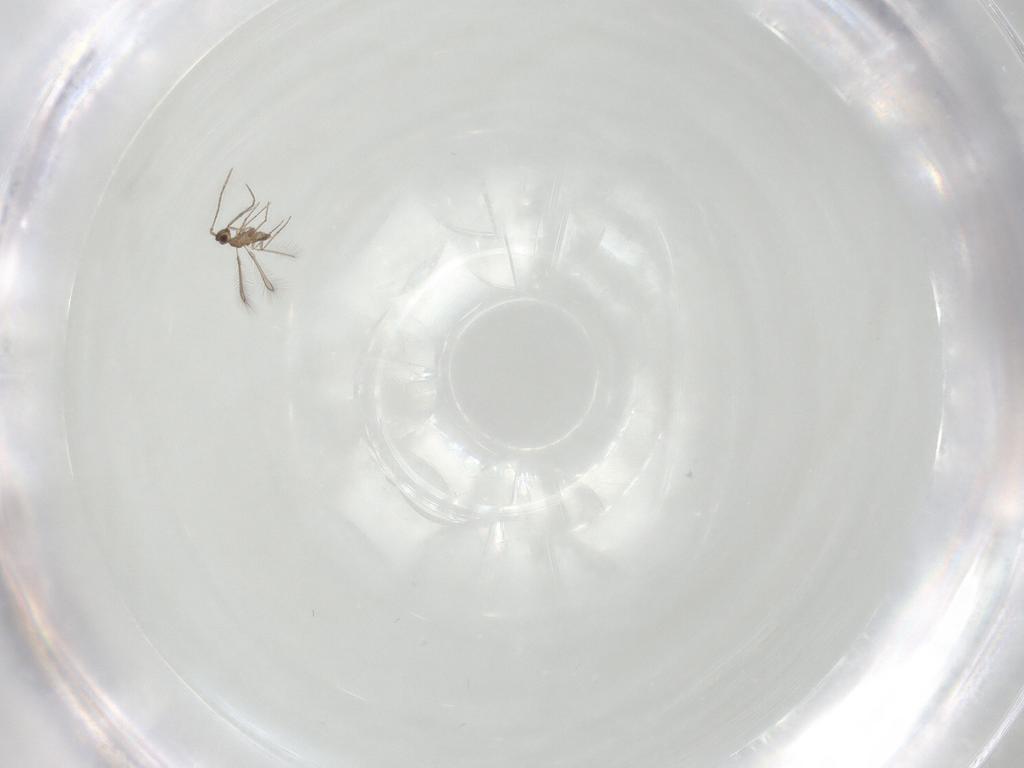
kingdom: Animalia
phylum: Arthropoda
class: Insecta
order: Hymenoptera
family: Mymaridae
